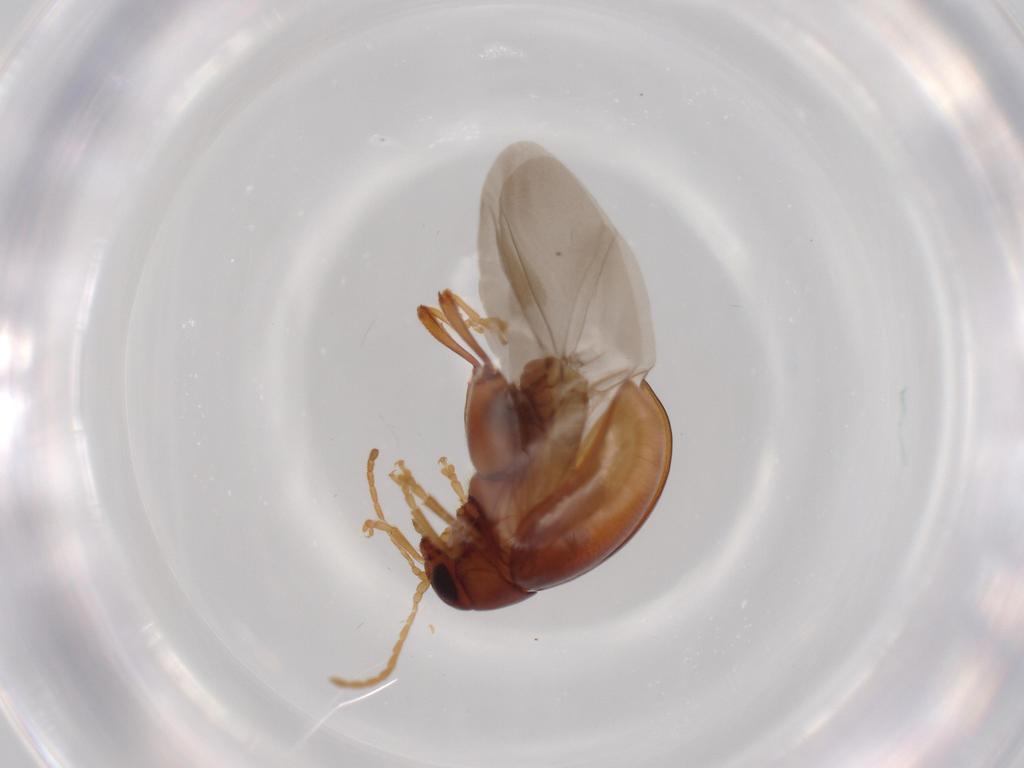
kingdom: Animalia
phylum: Arthropoda
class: Insecta
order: Coleoptera
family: Chrysomelidae
